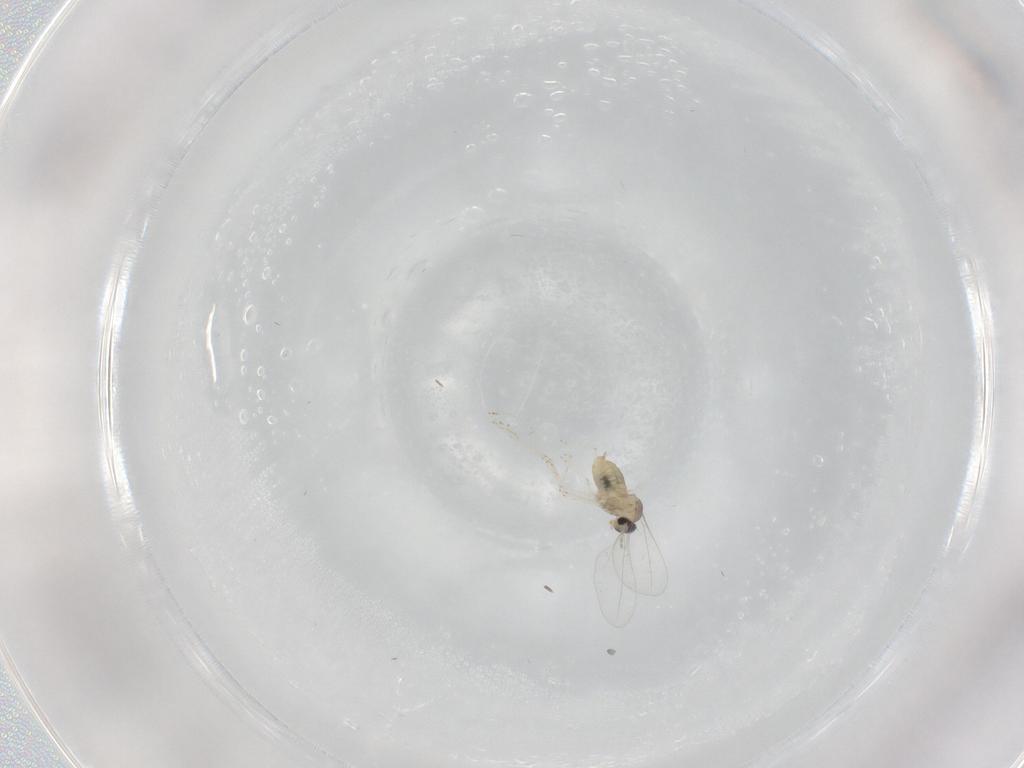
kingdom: Animalia
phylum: Arthropoda
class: Insecta
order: Diptera
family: Cecidomyiidae
